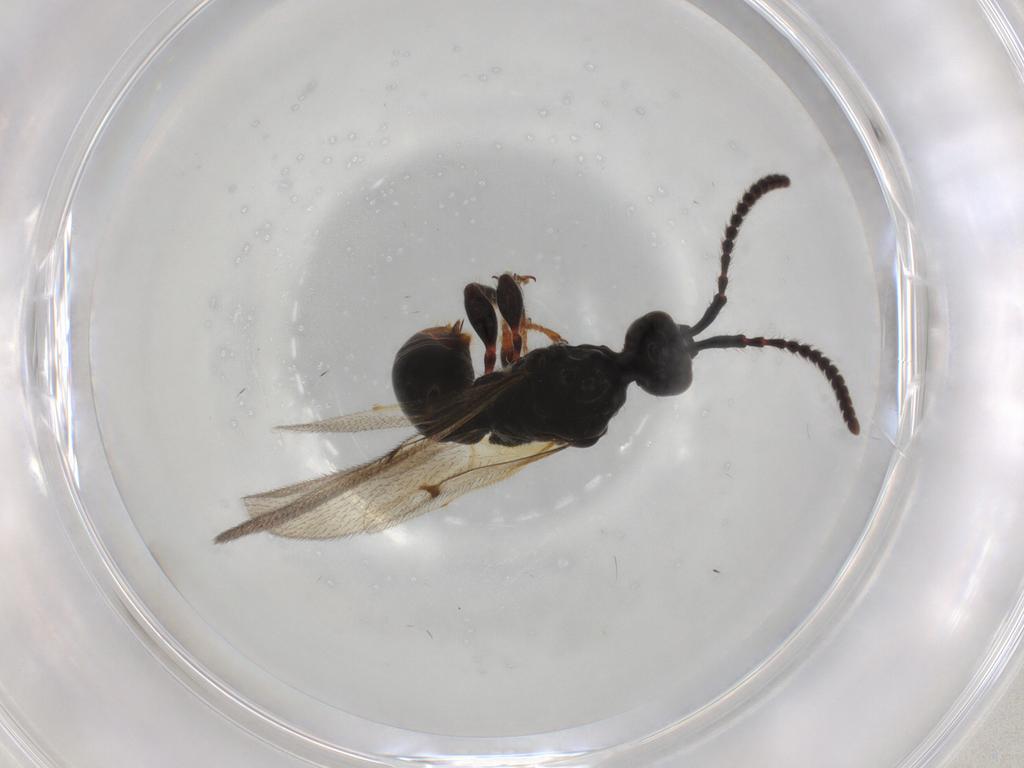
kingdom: Animalia
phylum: Arthropoda
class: Insecta
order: Hymenoptera
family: Diapriidae
